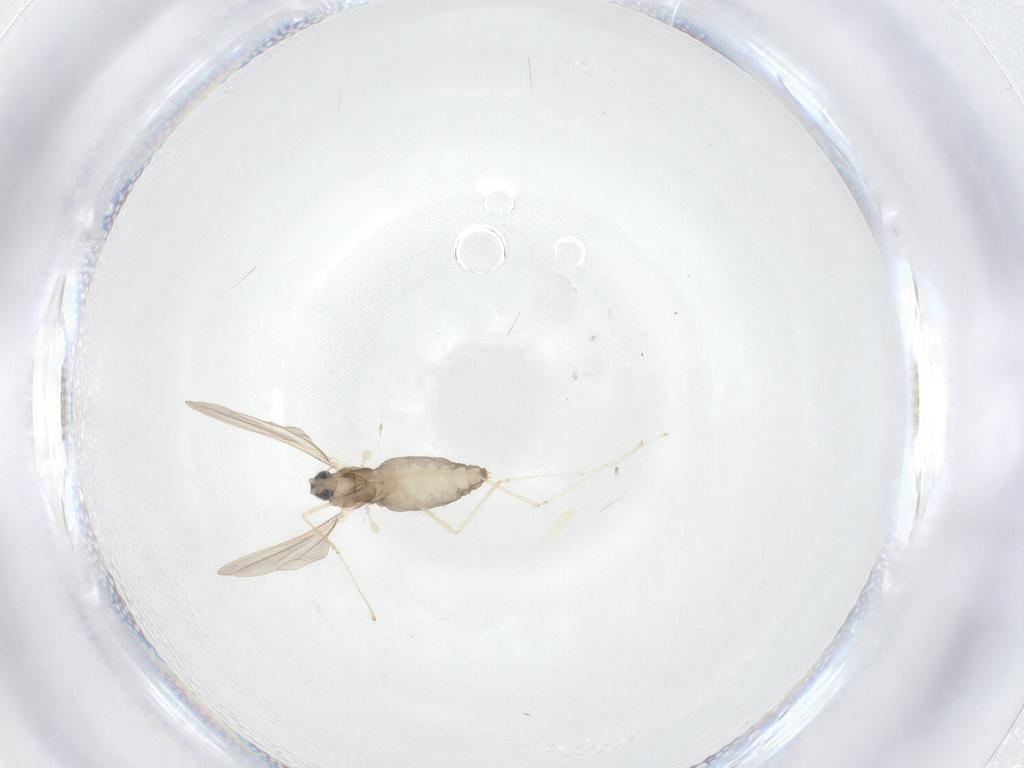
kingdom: Animalia
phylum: Arthropoda
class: Insecta
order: Diptera
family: Cecidomyiidae
